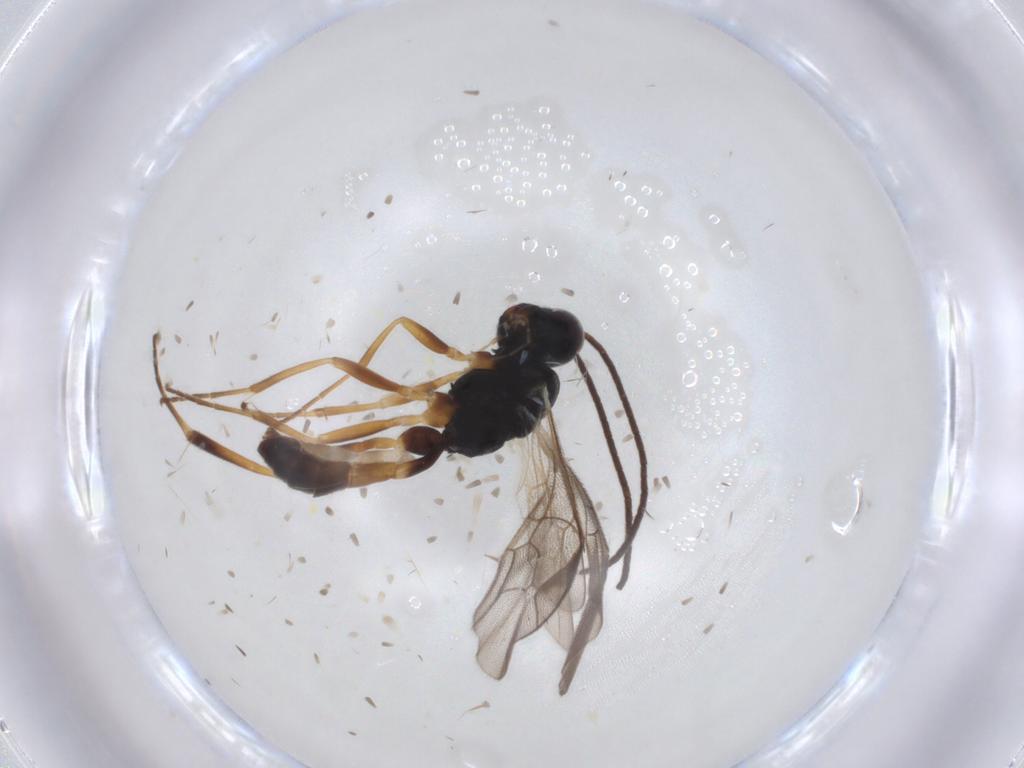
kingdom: Animalia
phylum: Arthropoda
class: Insecta
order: Hymenoptera
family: Ichneumonidae
